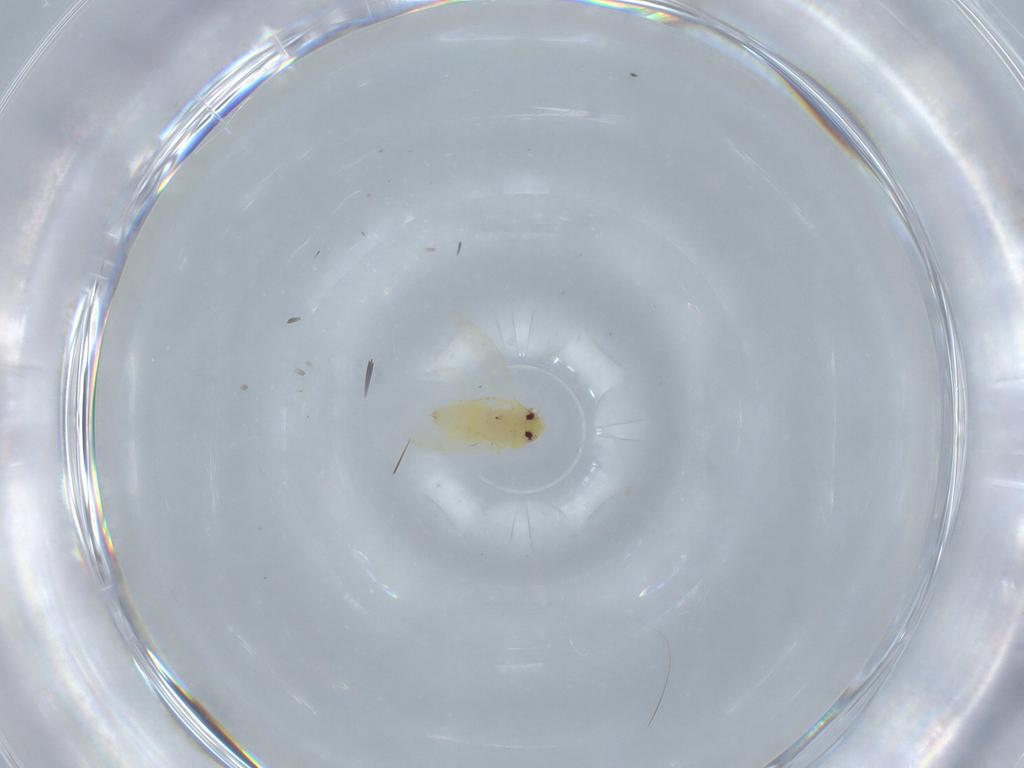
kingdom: Animalia
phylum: Arthropoda
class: Insecta
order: Hemiptera
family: Aleyrodidae
